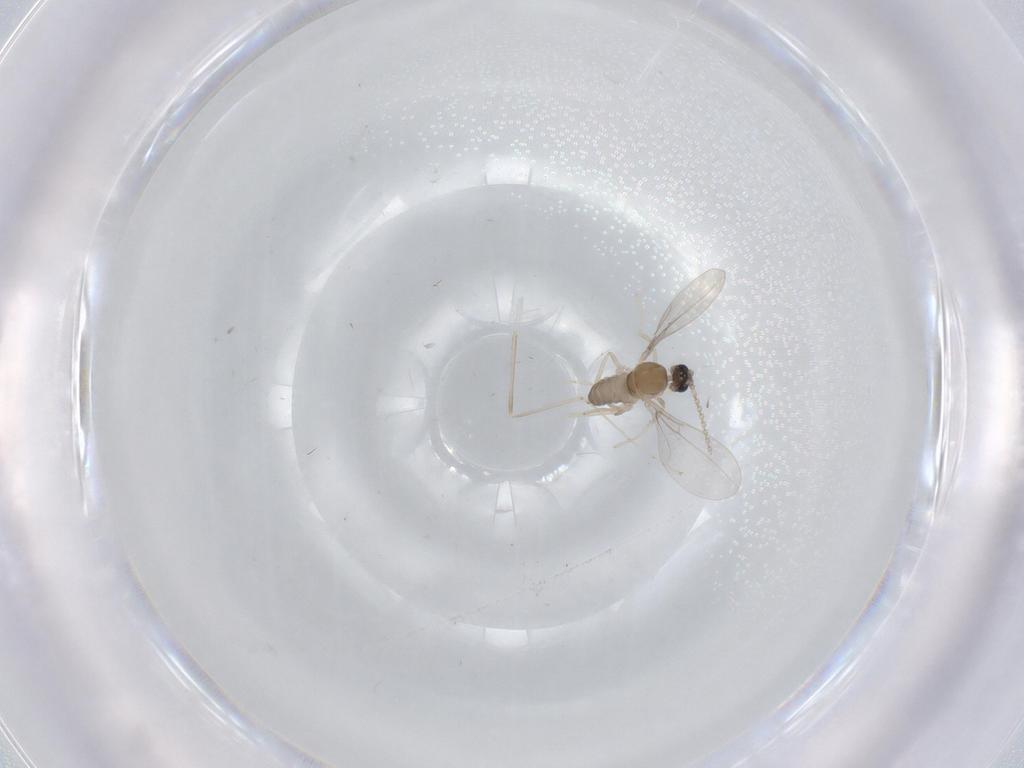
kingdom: Animalia
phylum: Arthropoda
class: Insecta
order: Diptera
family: Cecidomyiidae
